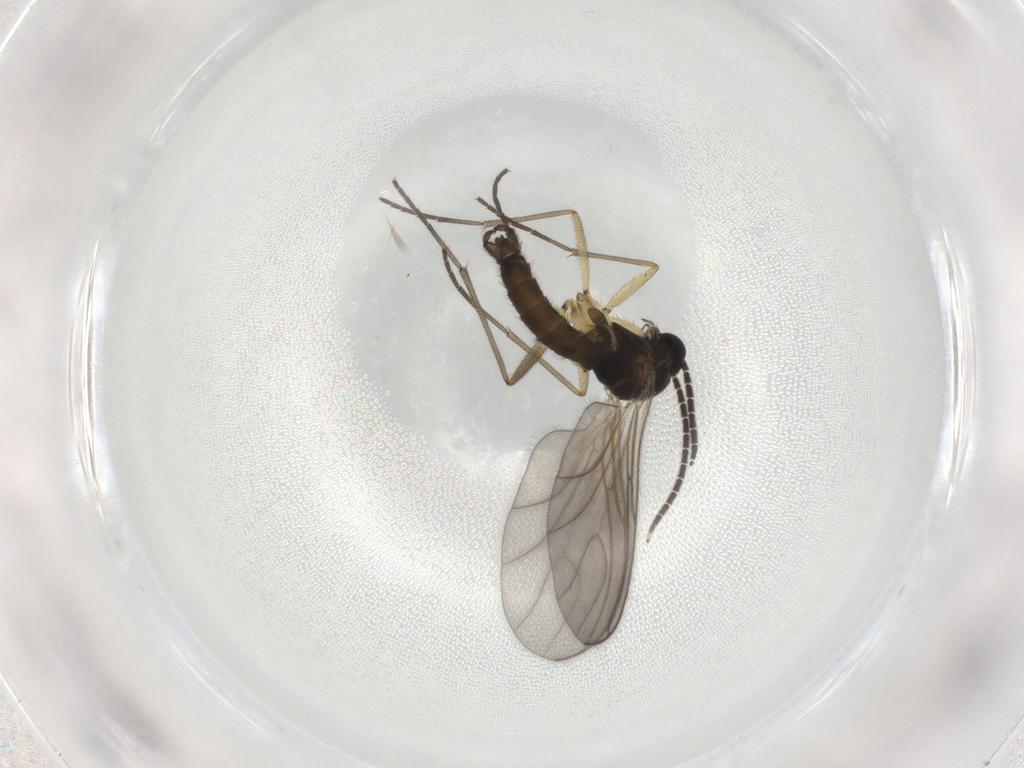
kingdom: Animalia
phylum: Arthropoda
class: Insecta
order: Diptera
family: Sciaridae
